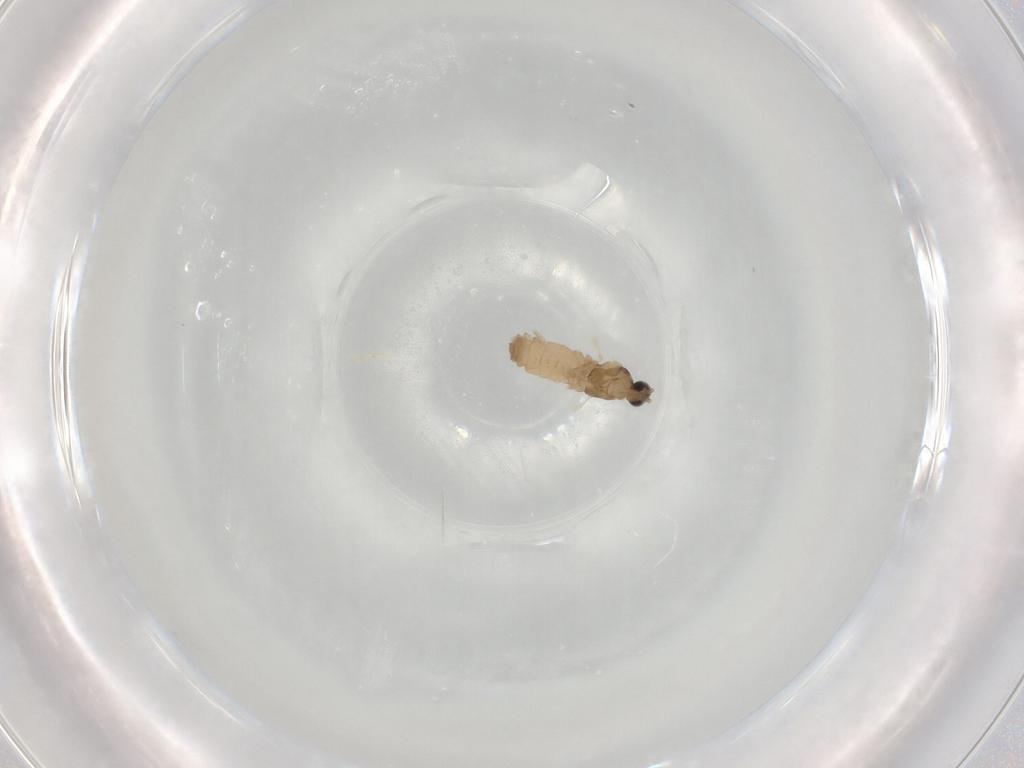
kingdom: Animalia
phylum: Arthropoda
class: Insecta
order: Diptera
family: Cecidomyiidae
